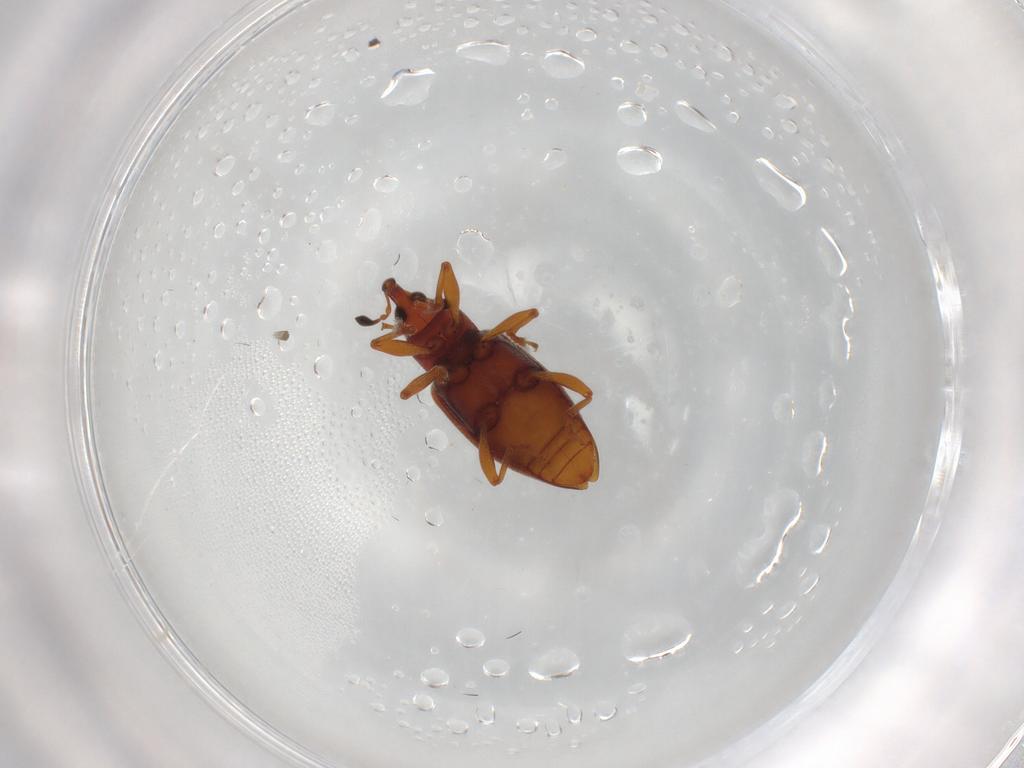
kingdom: Animalia
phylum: Arthropoda
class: Insecta
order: Coleoptera
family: Curculionidae
